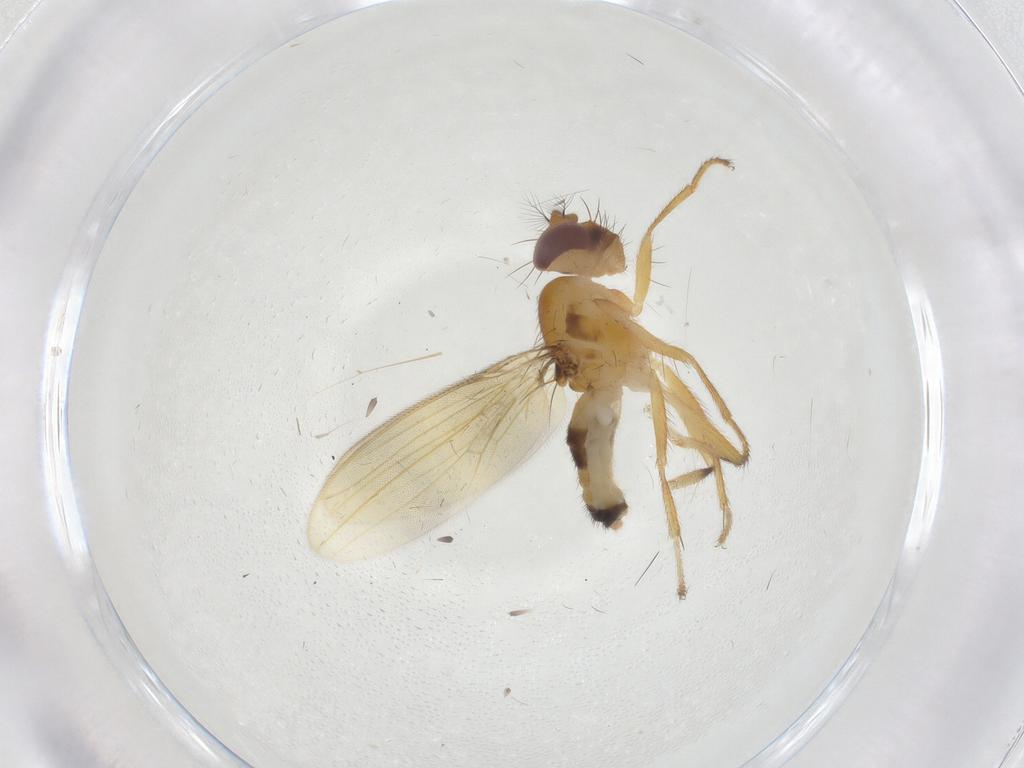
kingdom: Animalia
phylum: Arthropoda
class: Insecta
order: Diptera
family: Periscelididae
